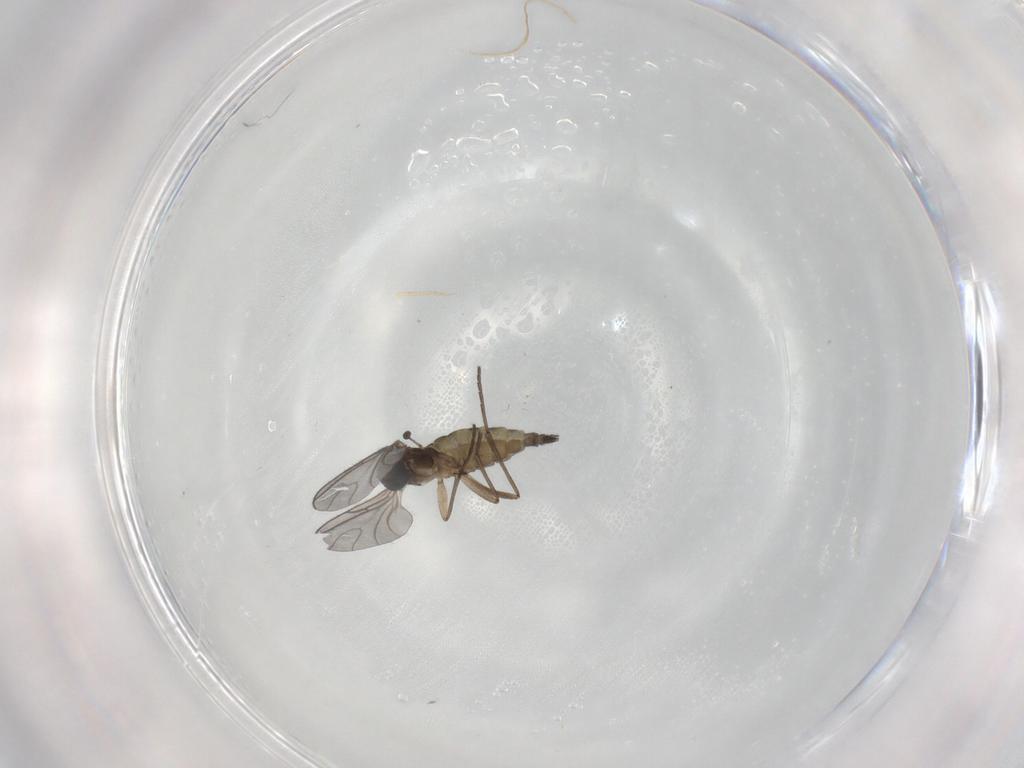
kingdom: Animalia
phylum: Arthropoda
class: Insecta
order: Diptera
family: Sciaridae
